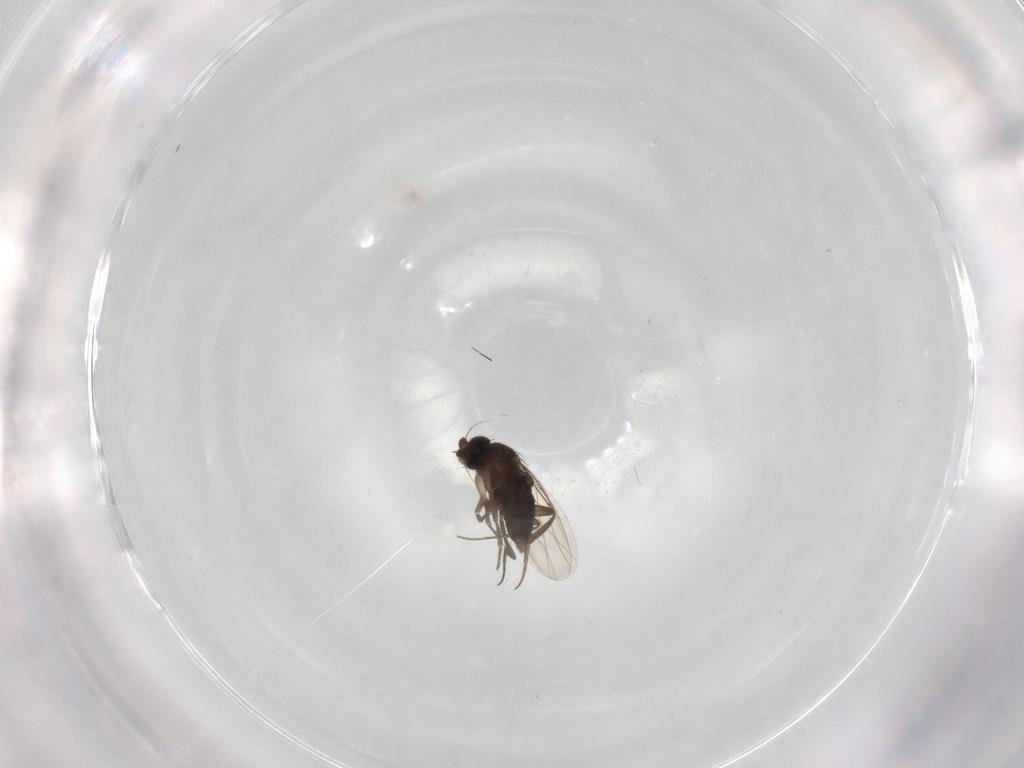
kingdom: Animalia
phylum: Arthropoda
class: Insecta
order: Diptera
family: Phoridae
